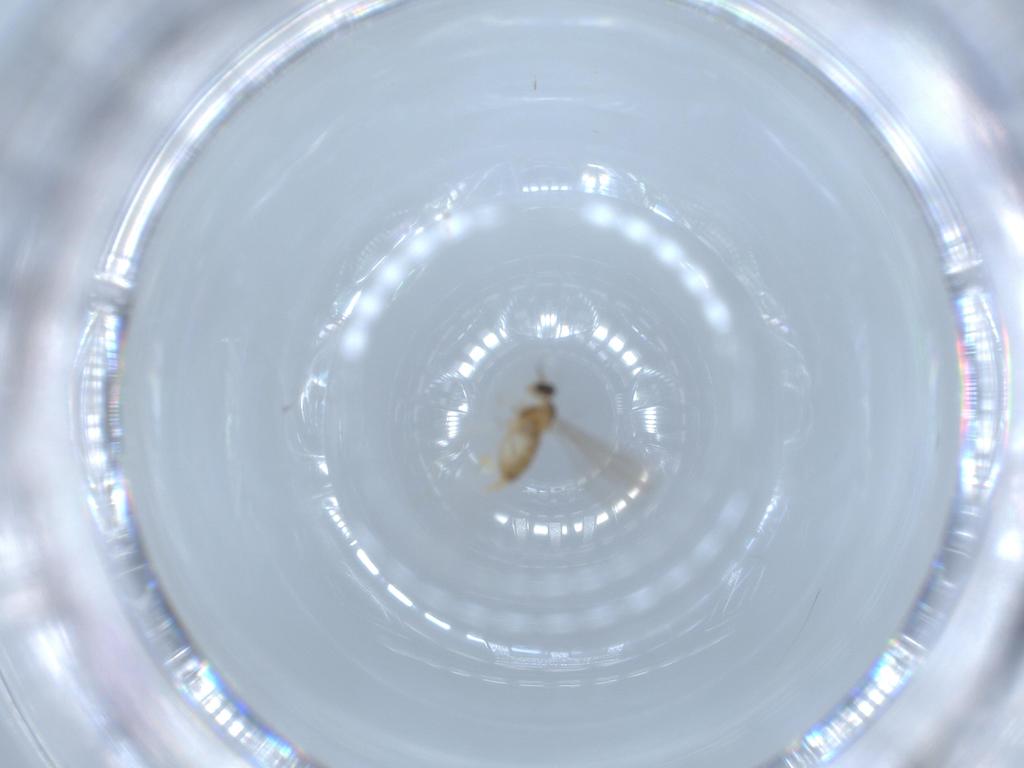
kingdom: Animalia
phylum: Arthropoda
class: Insecta
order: Diptera
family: Cecidomyiidae
